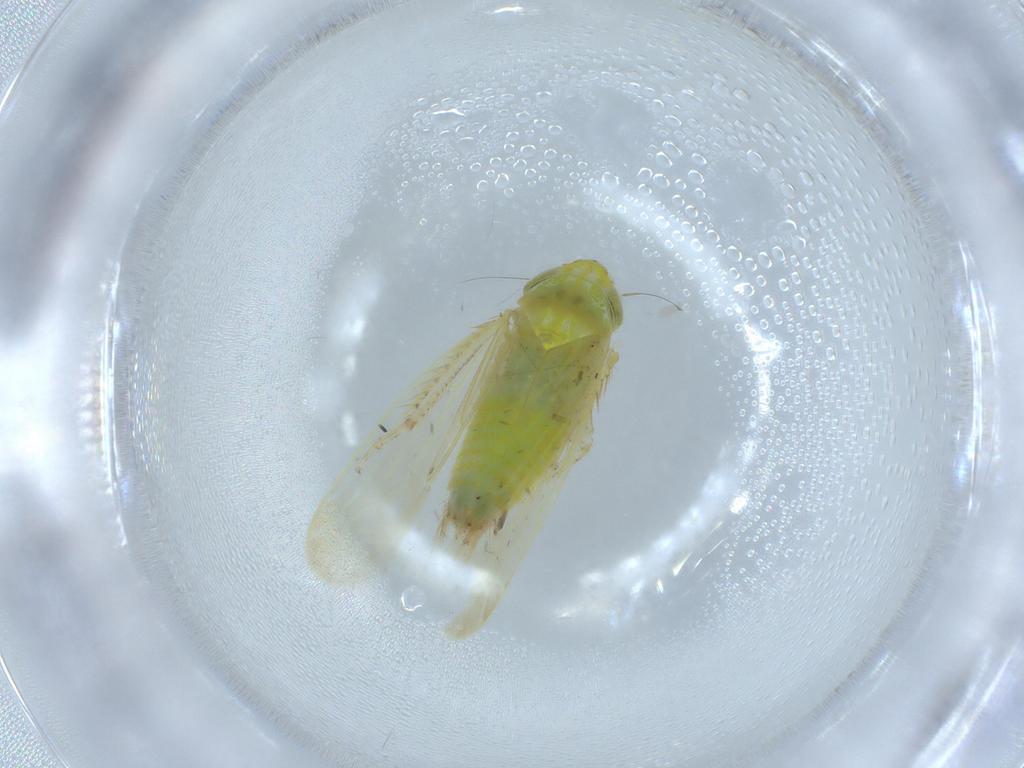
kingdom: Animalia
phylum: Arthropoda
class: Insecta
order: Hemiptera
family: Cicadellidae
